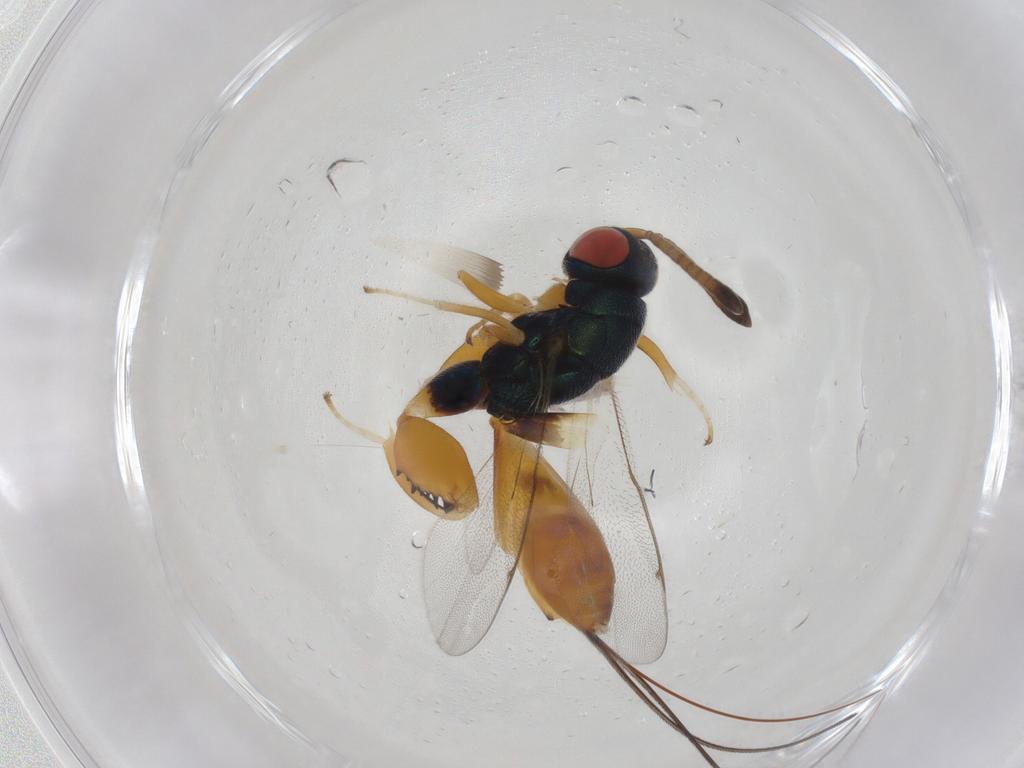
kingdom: Animalia
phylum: Arthropoda
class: Insecta
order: Hymenoptera
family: Torymidae
